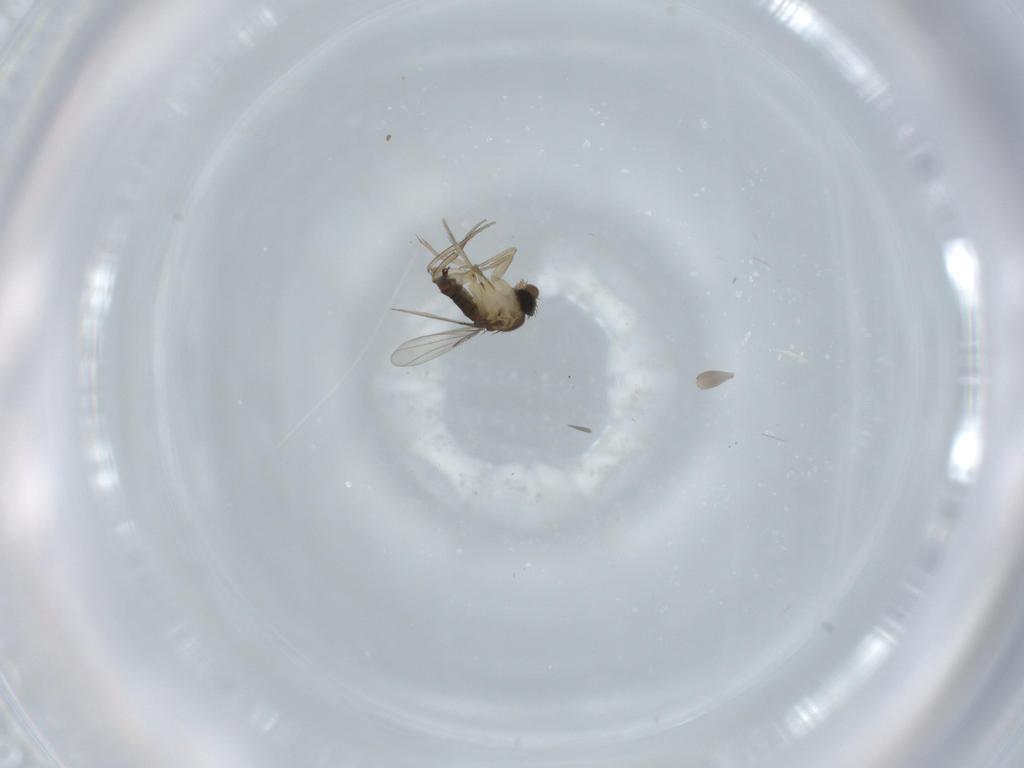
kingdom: Animalia
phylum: Arthropoda
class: Insecta
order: Diptera
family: Phoridae
